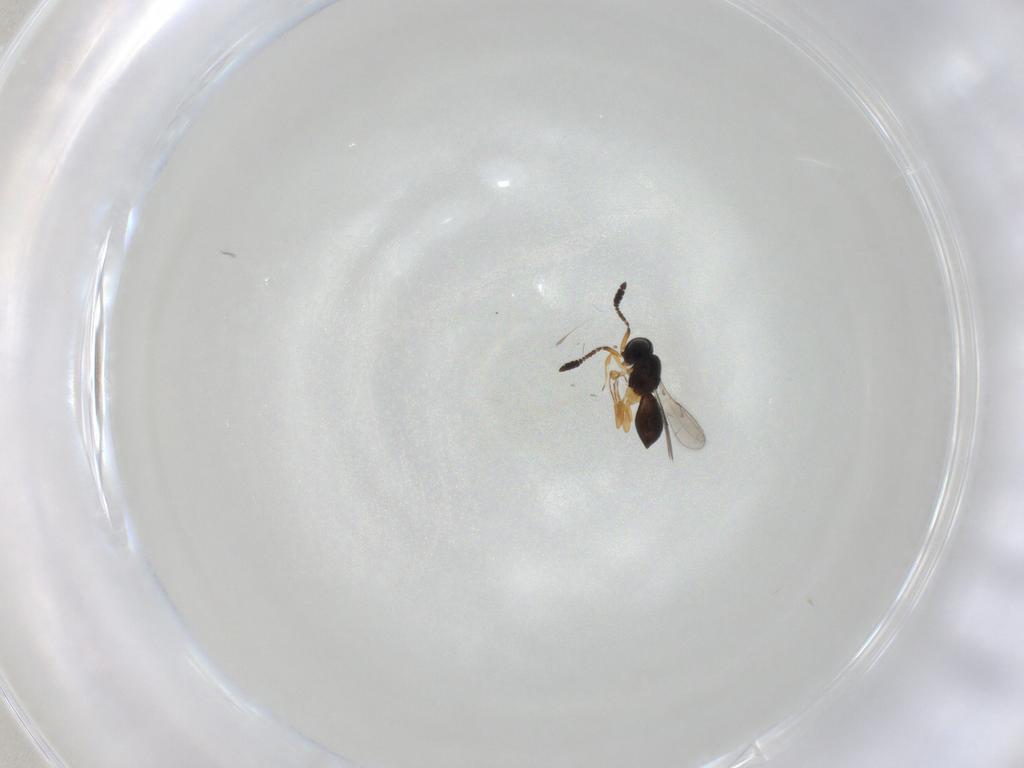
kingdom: Animalia
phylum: Arthropoda
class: Insecta
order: Hymenoptera
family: Scelionidae
